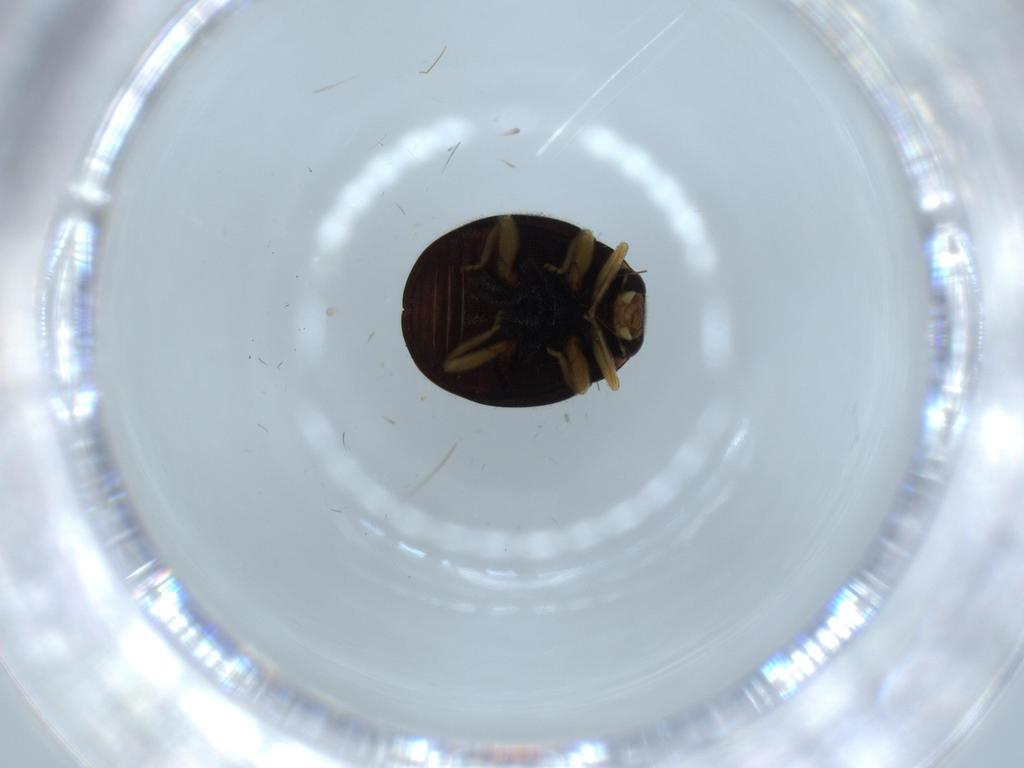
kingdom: Animalia
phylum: Arthropoda
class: Insecta
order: Coleoptera
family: Coccinellidae
